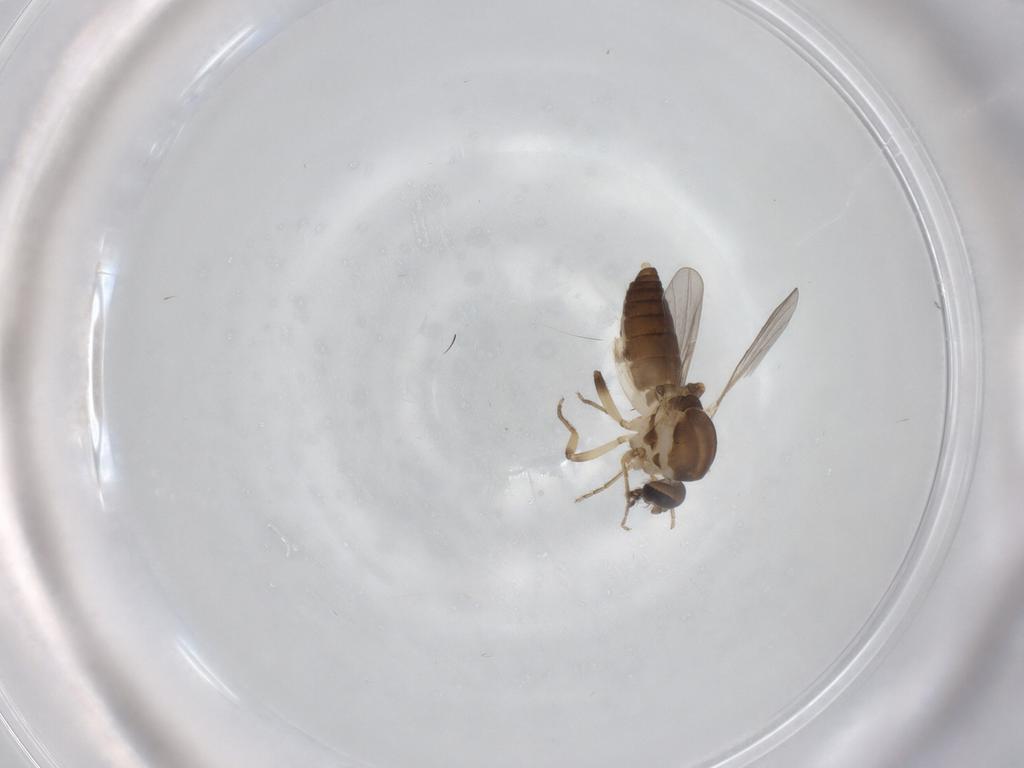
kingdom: Animalia
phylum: Arthropoda
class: Insecta
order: Diptera
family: Ceratopogonidae
